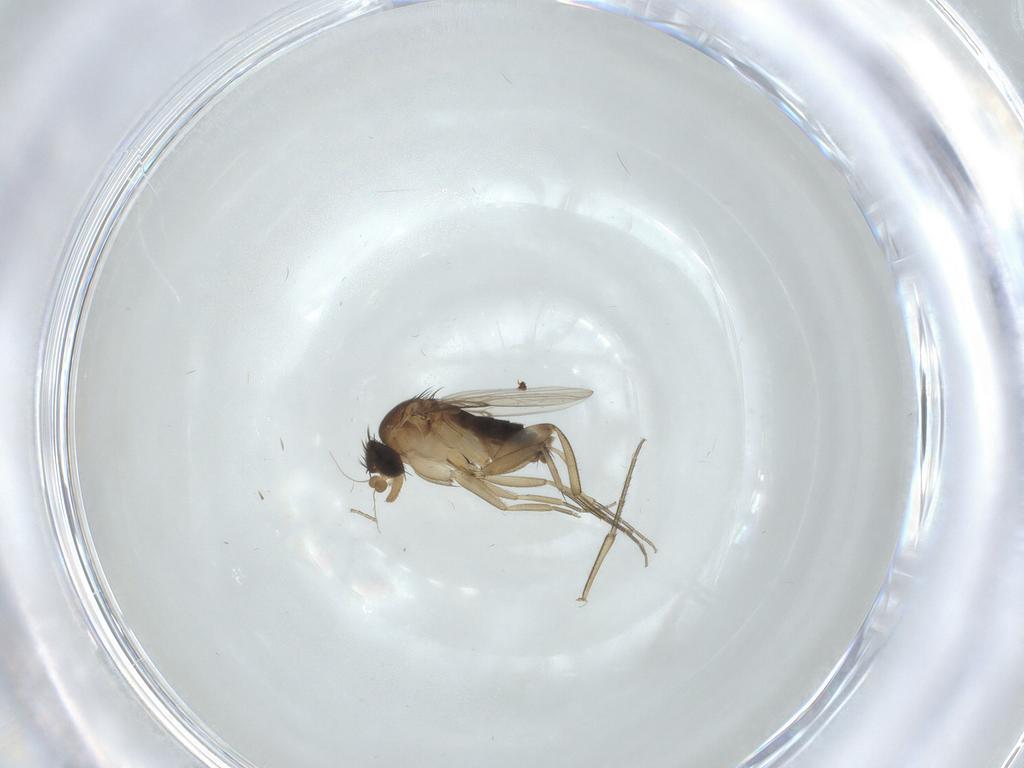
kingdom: Animalia
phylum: Arthropoda
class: Insecta
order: Diptera
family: Phoridae
